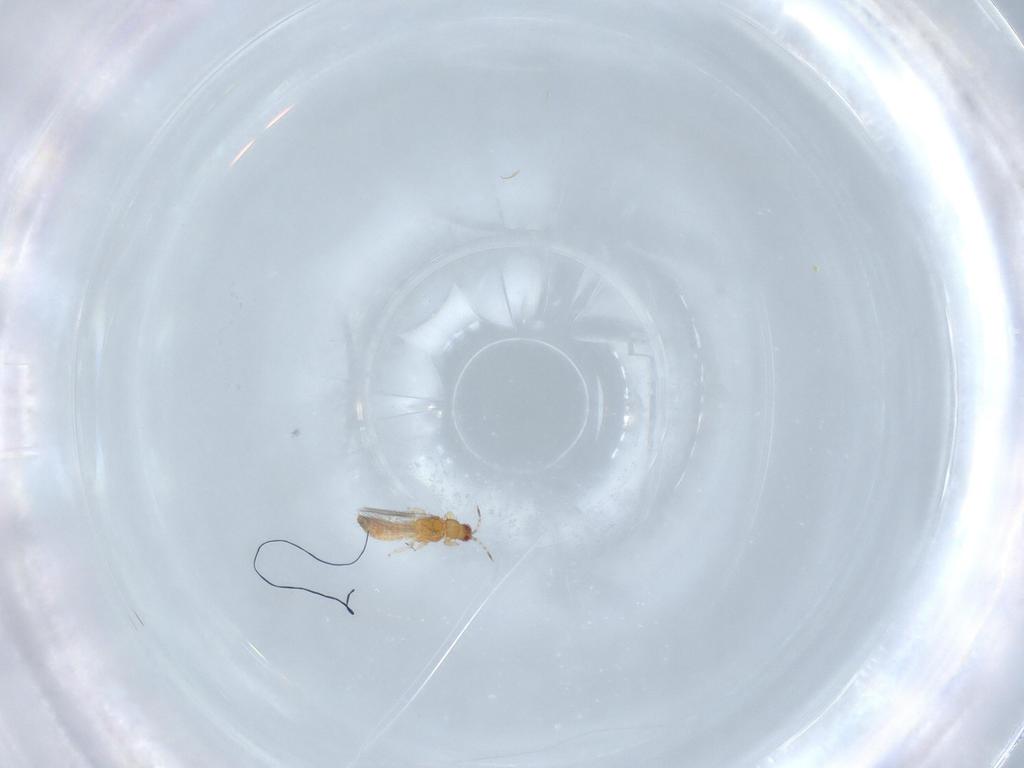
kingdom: Animalia
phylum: Arthropoda
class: Insecta
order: Thysanoptera
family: Thripidae
